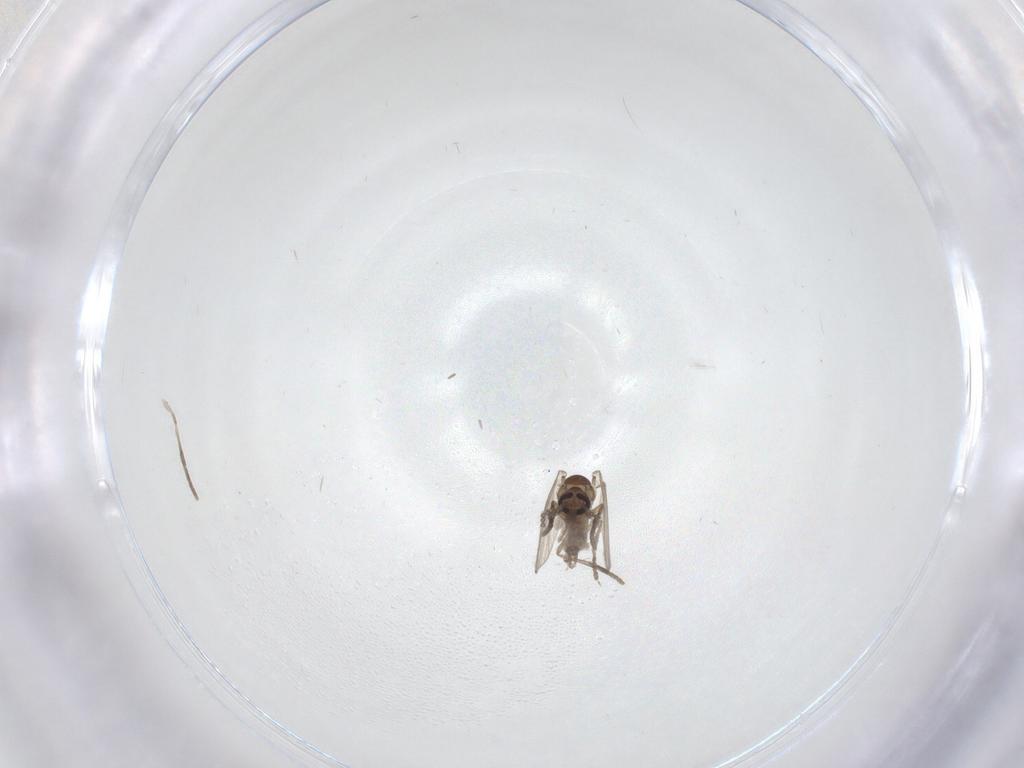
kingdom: Animalia
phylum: Arthropoda
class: Insecta
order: Diptera
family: Psychodidae
